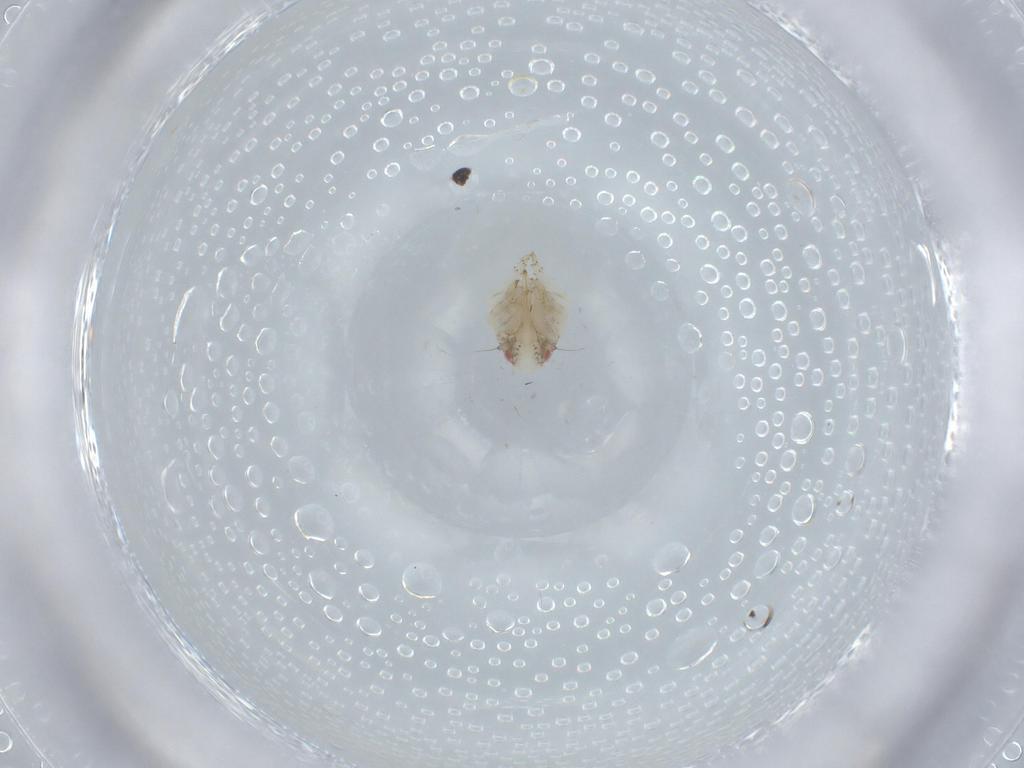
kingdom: Animalia
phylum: Arthropoda
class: Insecta
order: Hemiptera
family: Acanaloniidae
